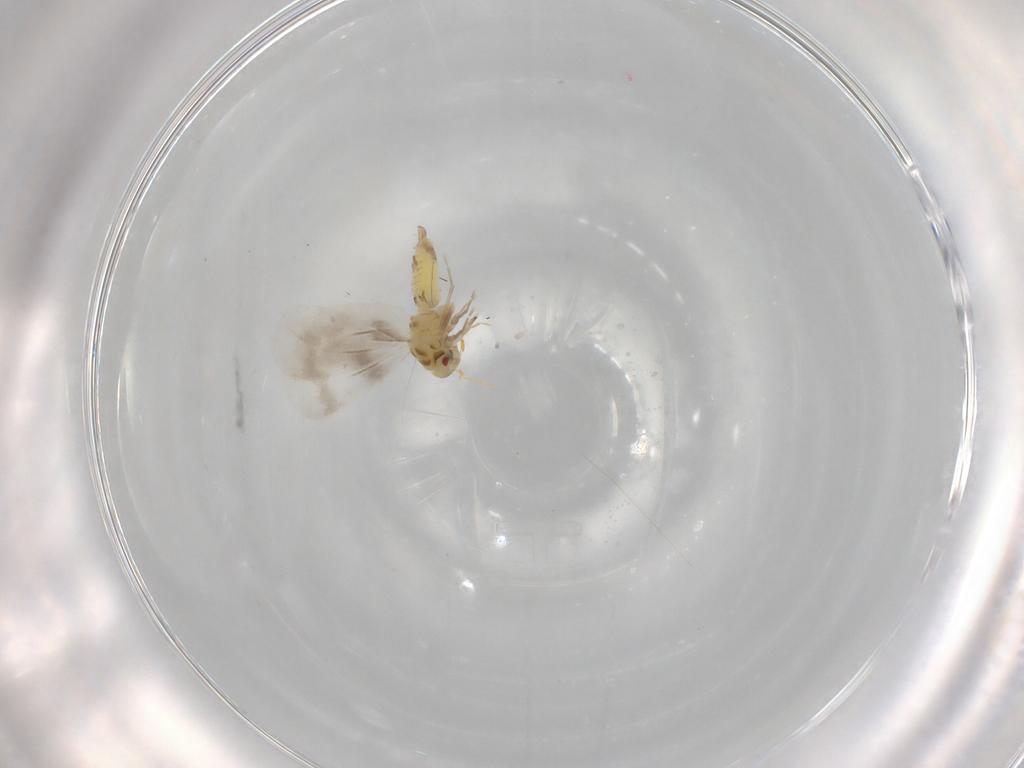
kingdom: Animalia
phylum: Arthropoda
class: Insecta
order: Hemiptera
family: Aleyrodidae
